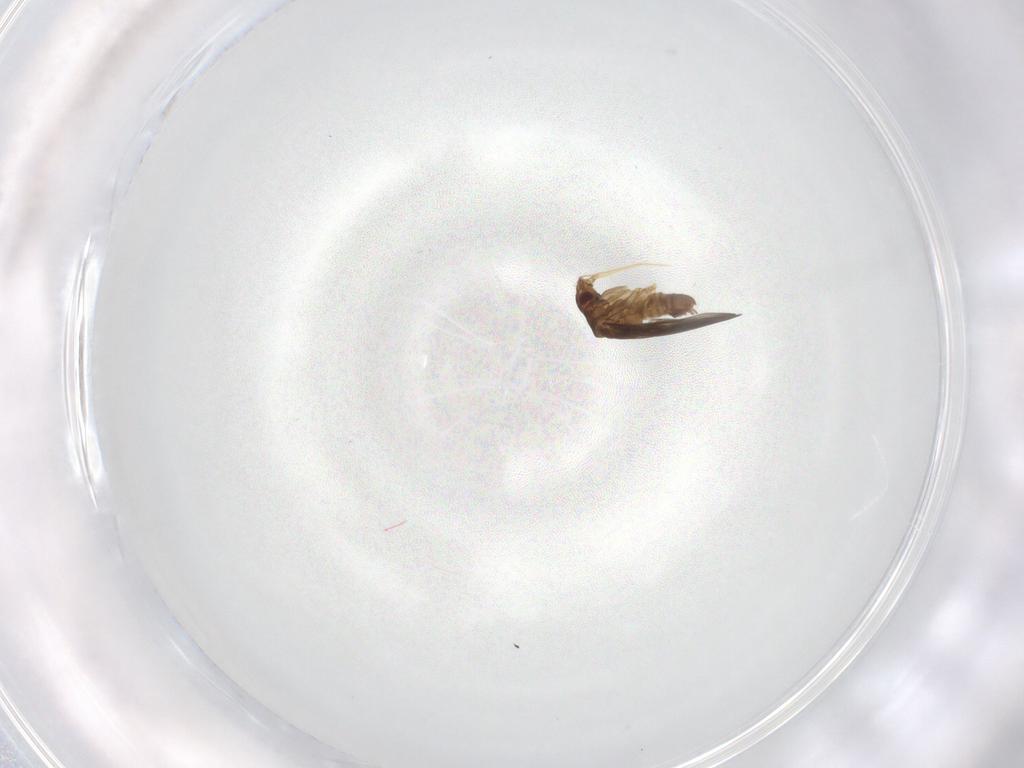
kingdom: Animalia
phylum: Arthropoda
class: Insecta
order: Hemiptera
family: Ceratocombidae
